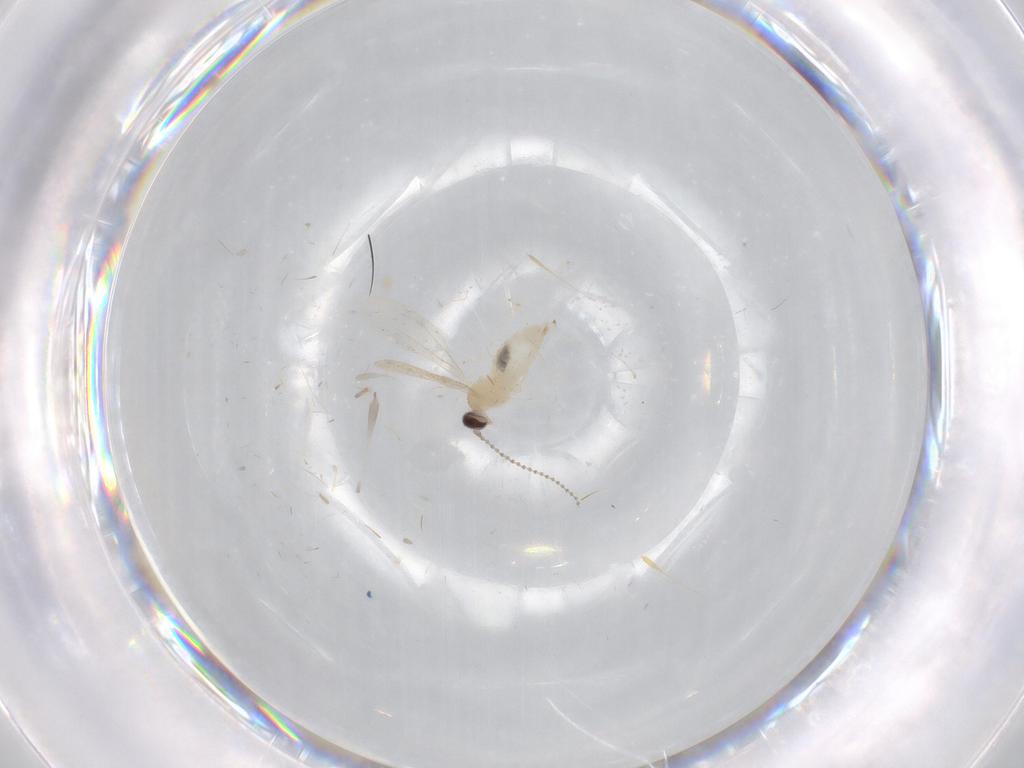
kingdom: Animalia
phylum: Arthropoda
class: Insecta
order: Diptera
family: Cecidomyiidae
